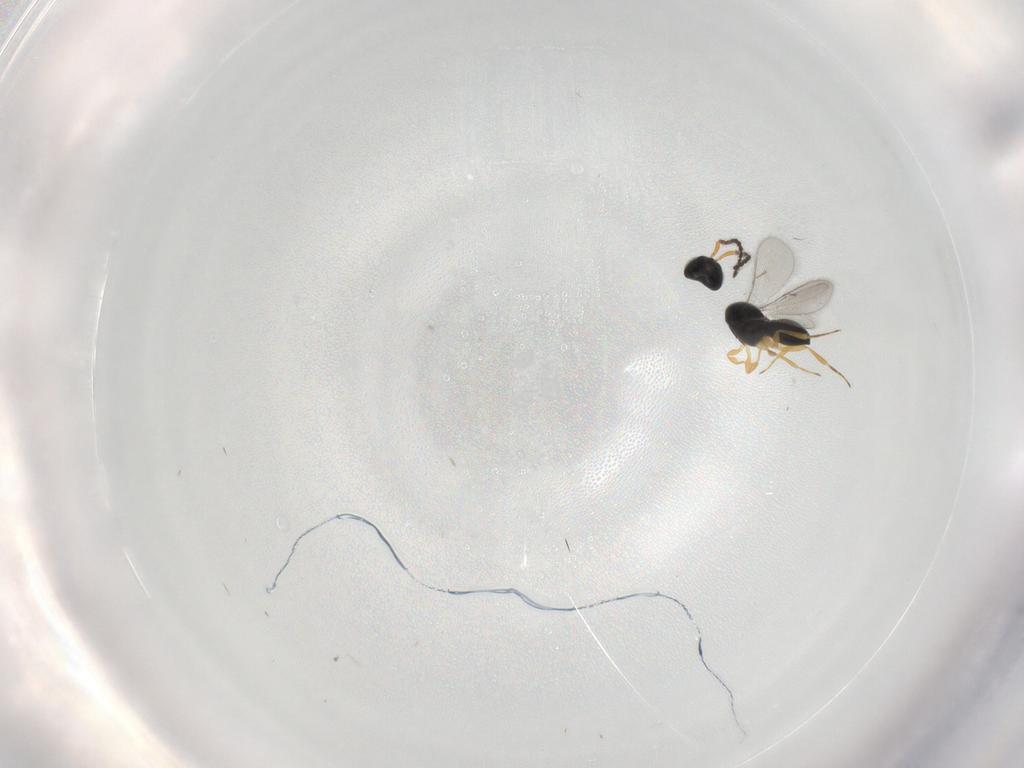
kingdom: Animalia
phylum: Arthropoda
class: Insecta
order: Hymenoptera
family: Scelionidae
